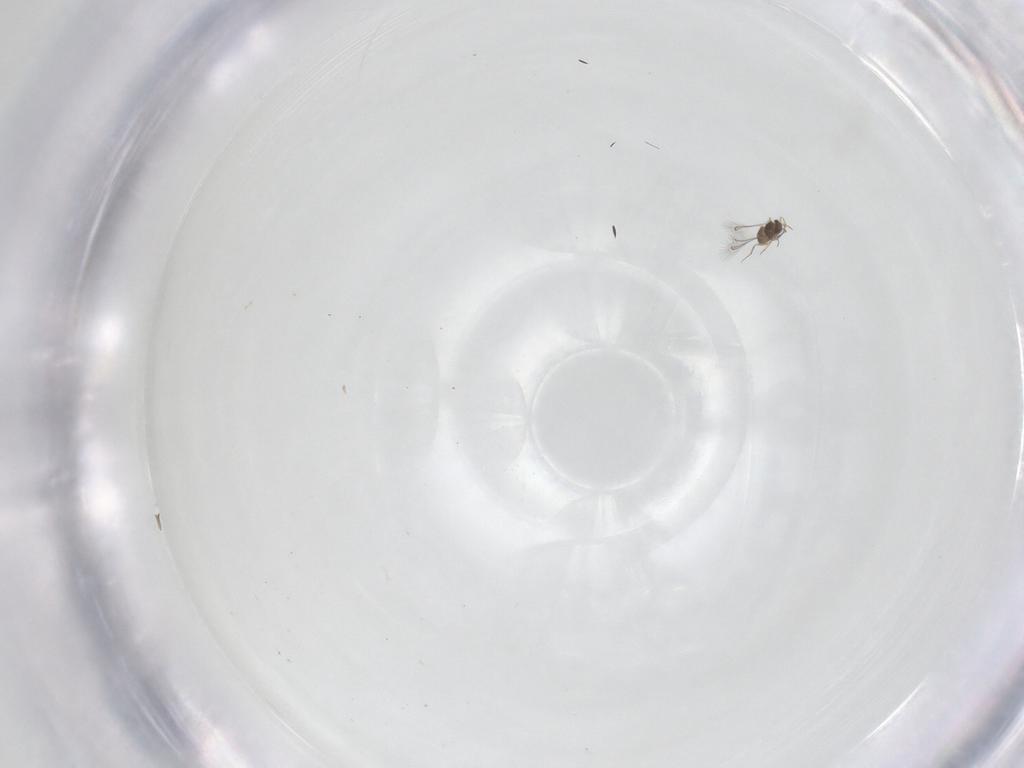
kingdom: Animalia
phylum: Arthropoda
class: Insecta
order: Hymenoptera
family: Mymaridae
